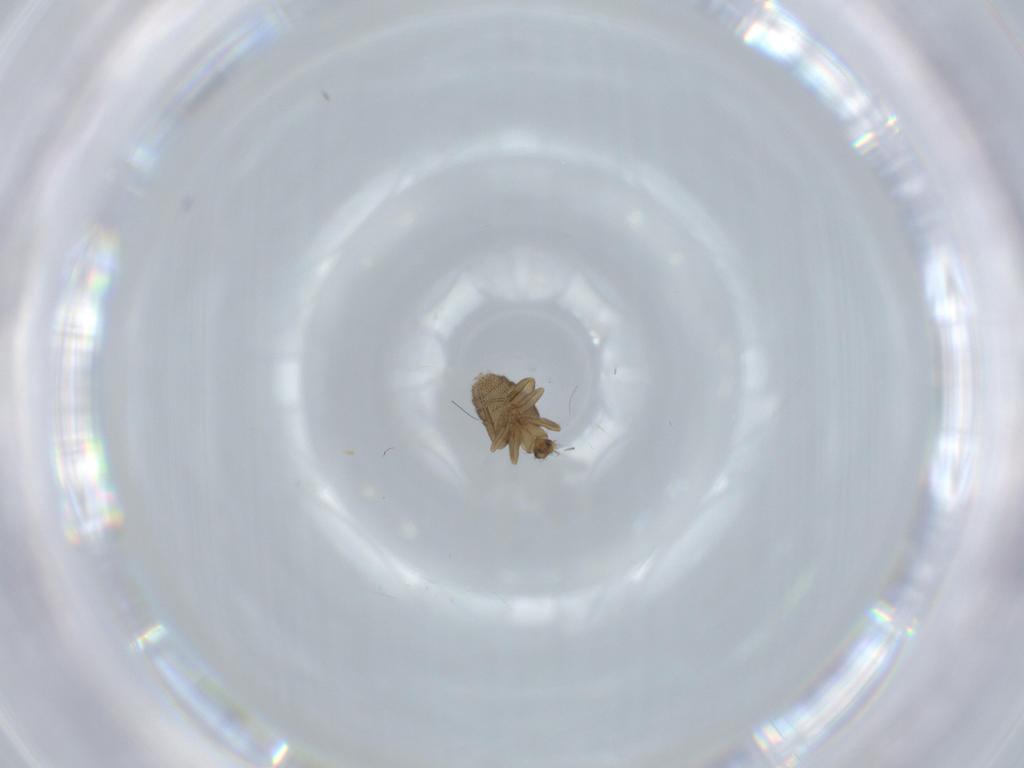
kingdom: Animalia
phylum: Arthropoda
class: Insecta
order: Diptera
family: Phoridae
